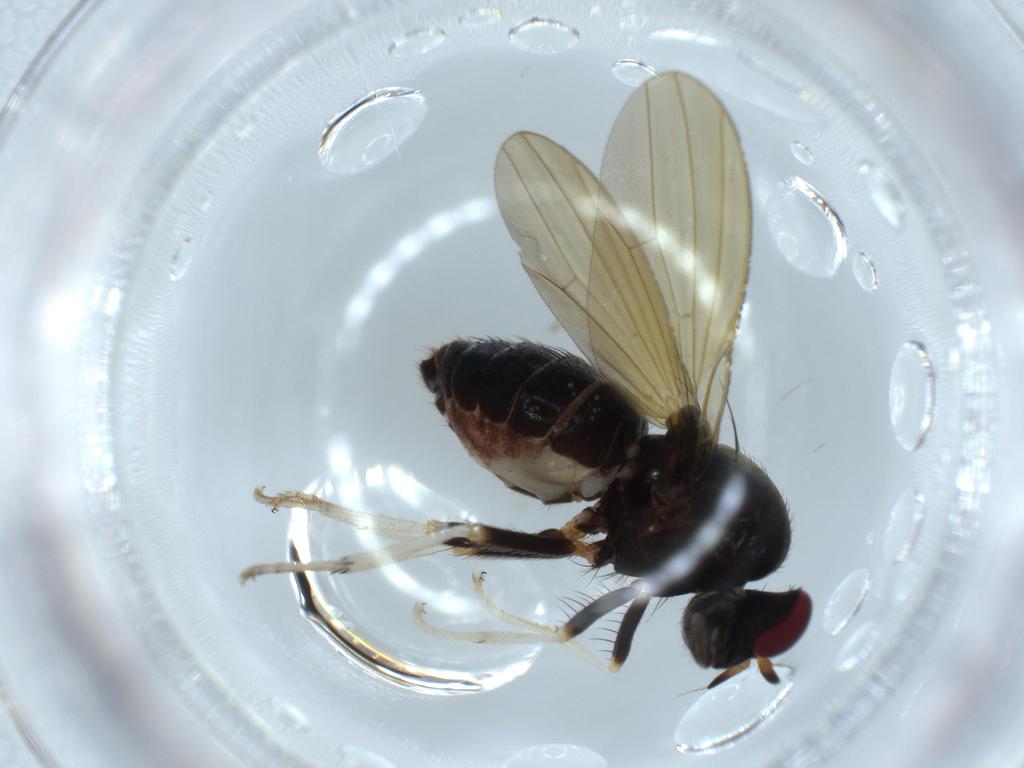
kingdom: Animalia
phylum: Arthropoda
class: Insecta
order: Diptera
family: Lauxaniidae
